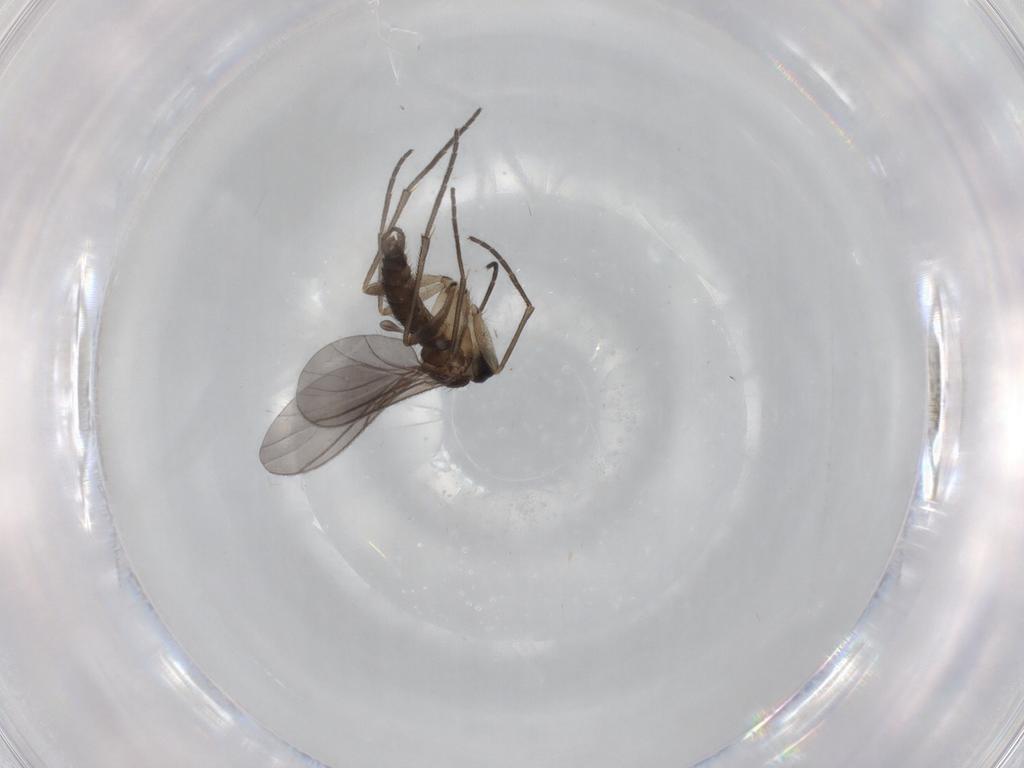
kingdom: Animalia
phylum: Arthropoda
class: Insecta
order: Diptera
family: Sciaridae
